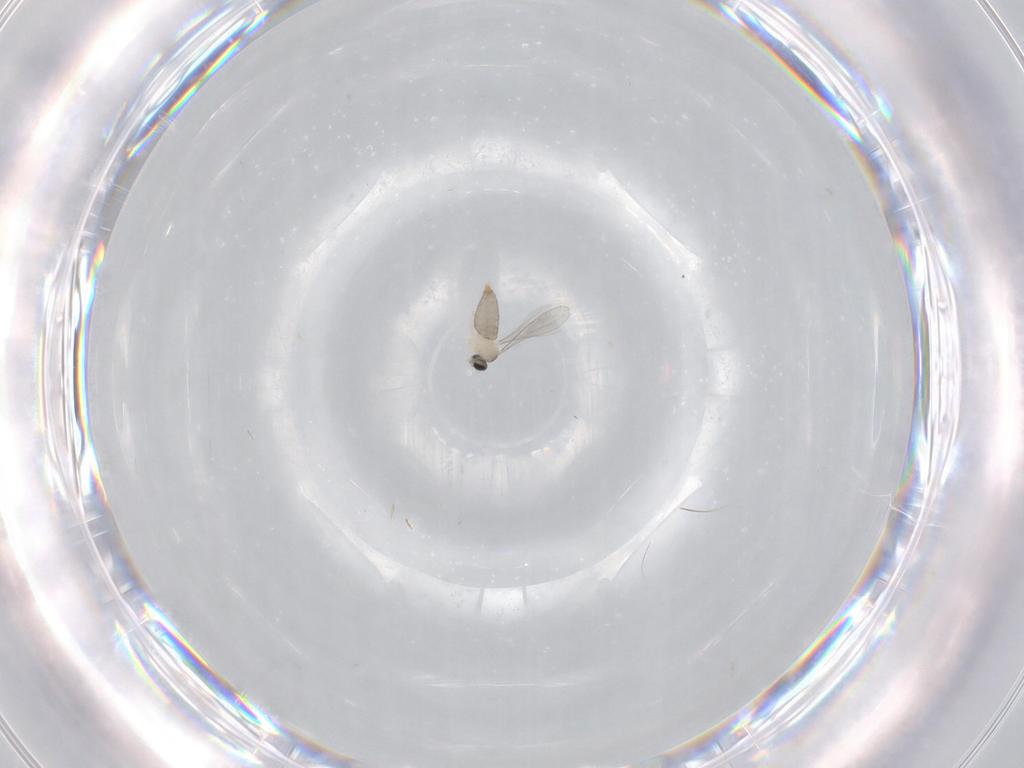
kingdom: Animalia
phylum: Arthropoda
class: Insecta
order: Diptera
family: Cecidomyiidae
